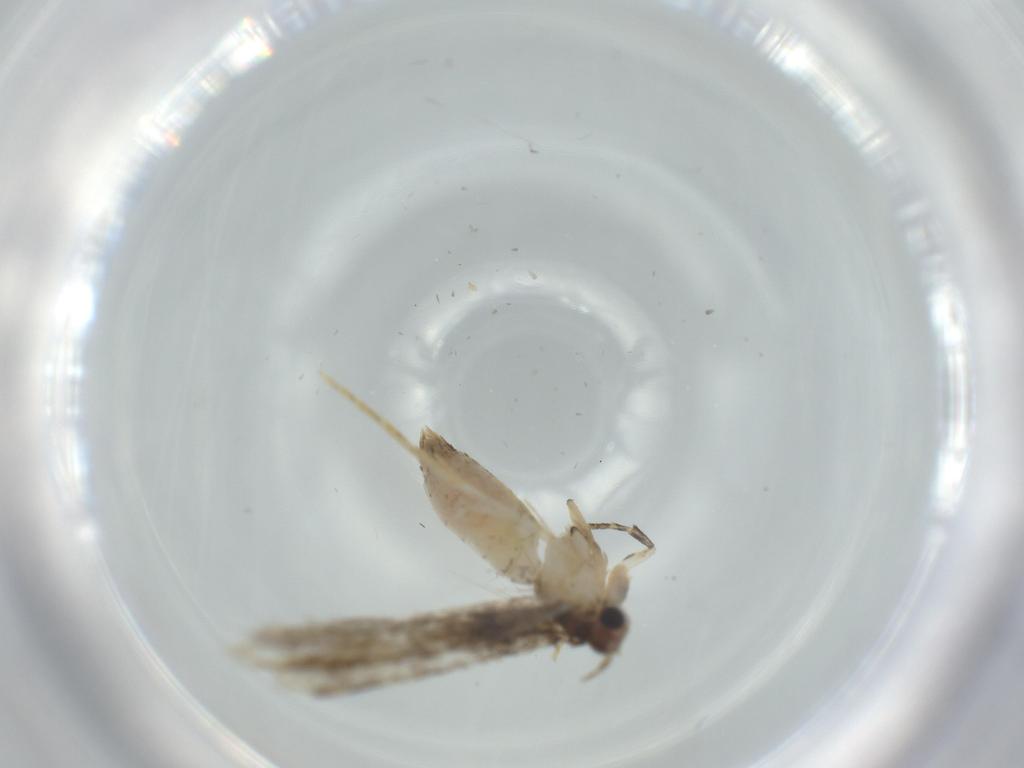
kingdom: Animalia
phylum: Arthropoda
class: Insecta
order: Lepidoptera
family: Tineidae
